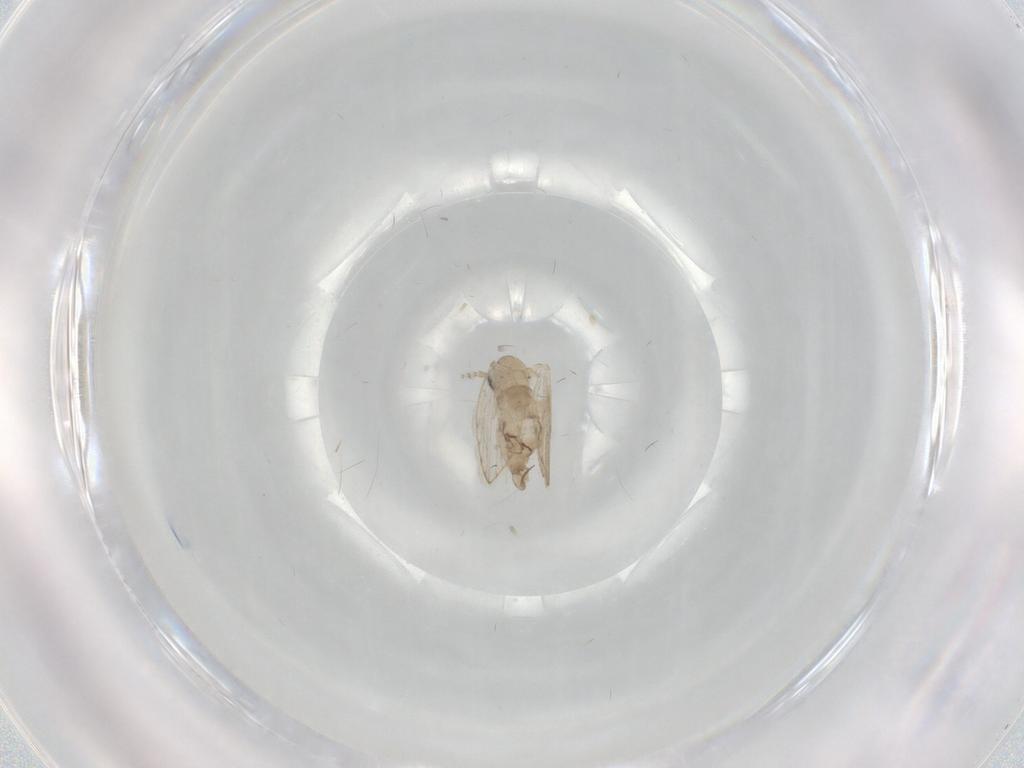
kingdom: Animalia
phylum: Arthropoda
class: Insecta
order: Diptera
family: Psychodidae
